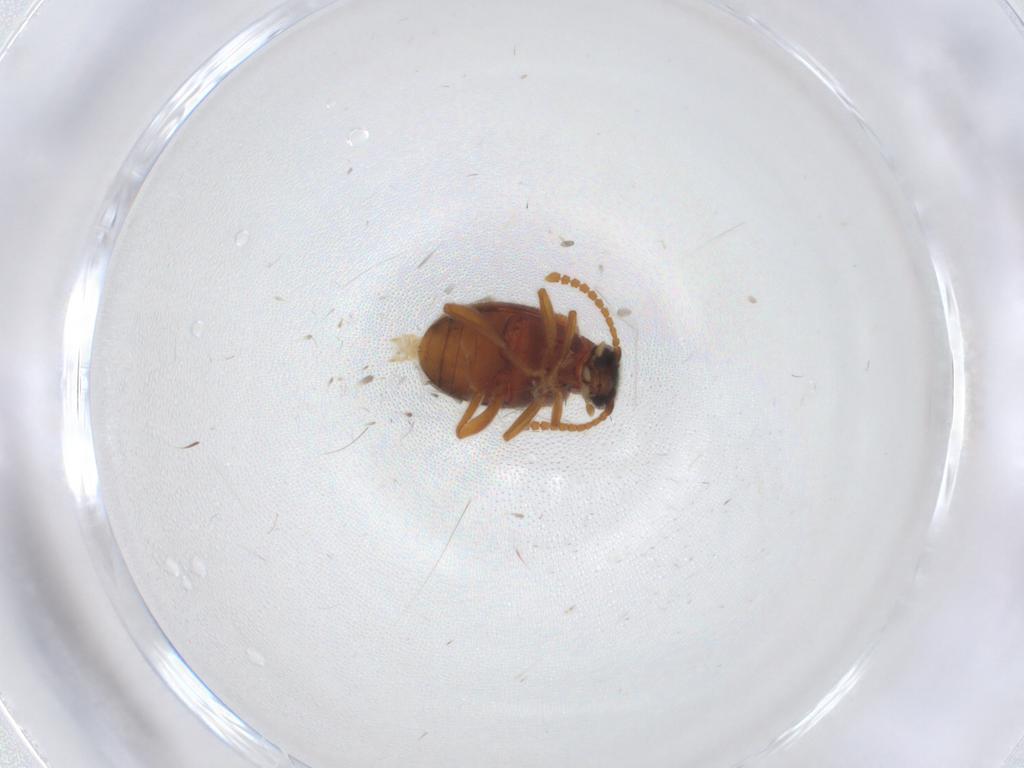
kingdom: Animalia
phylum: Arthropoda
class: Insecta
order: Coleoptera
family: Aderidae
